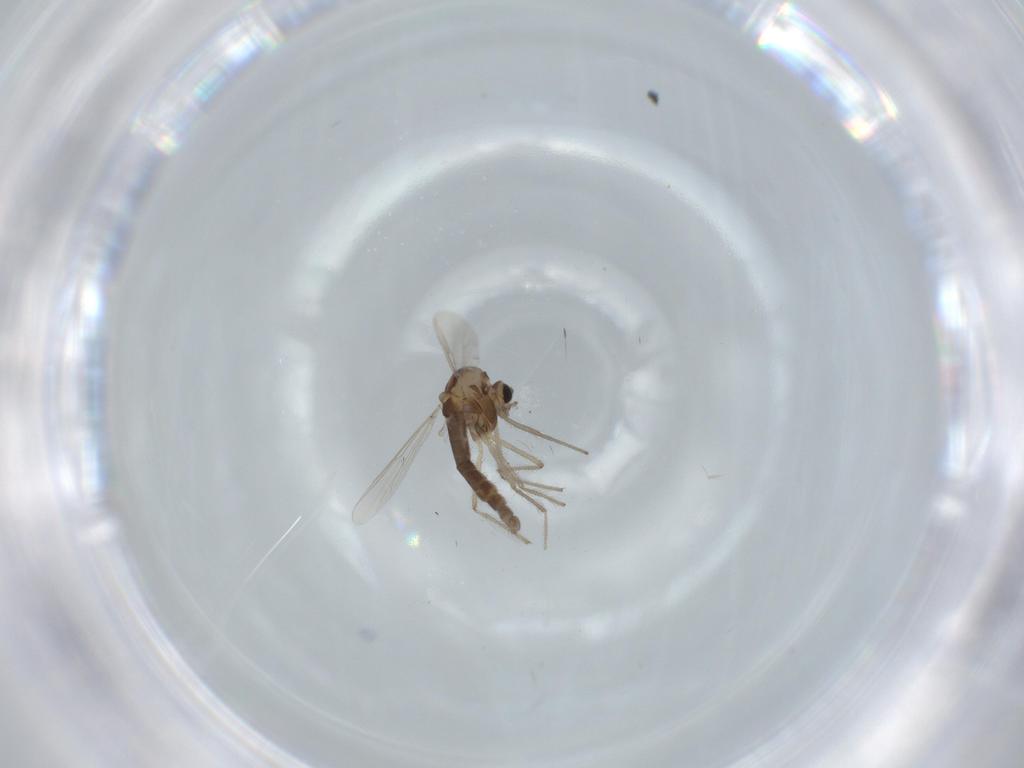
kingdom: Animalia
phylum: Arthropoda
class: Insecta
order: Diptera
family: Chironomidae
